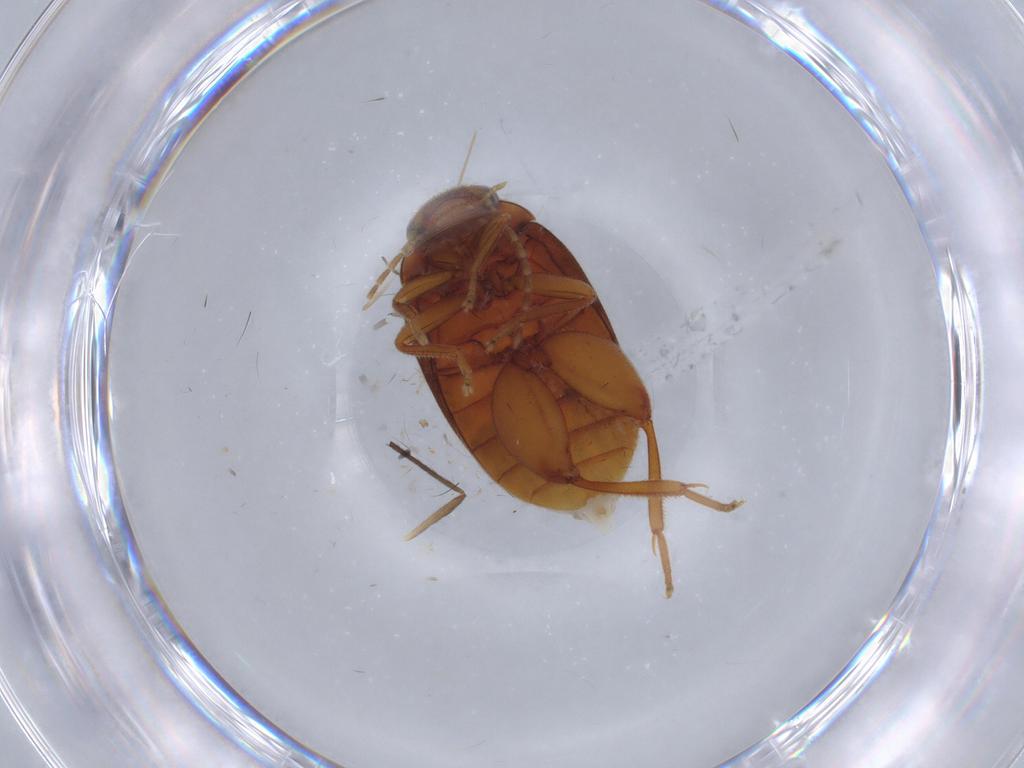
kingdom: Animalia
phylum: Arthropoda
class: Insecta
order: Coleoptera
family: Scirtidae
